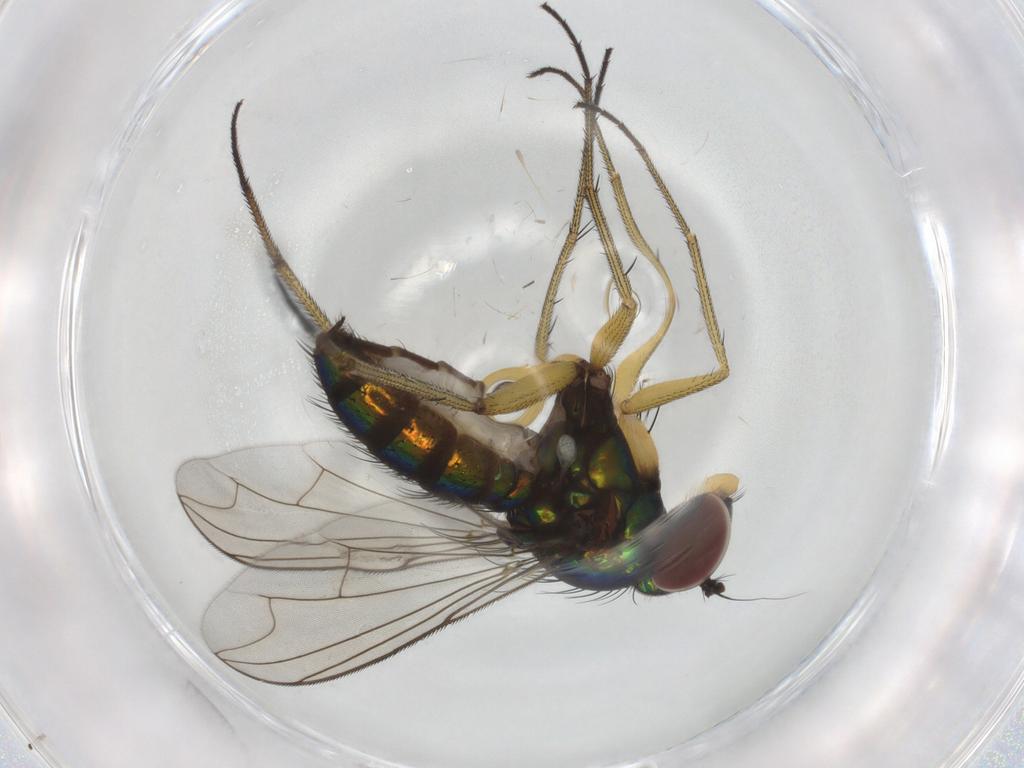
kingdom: Animalia
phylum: Arthropoda
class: Insecta
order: Diptera
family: Dolichopodidae
